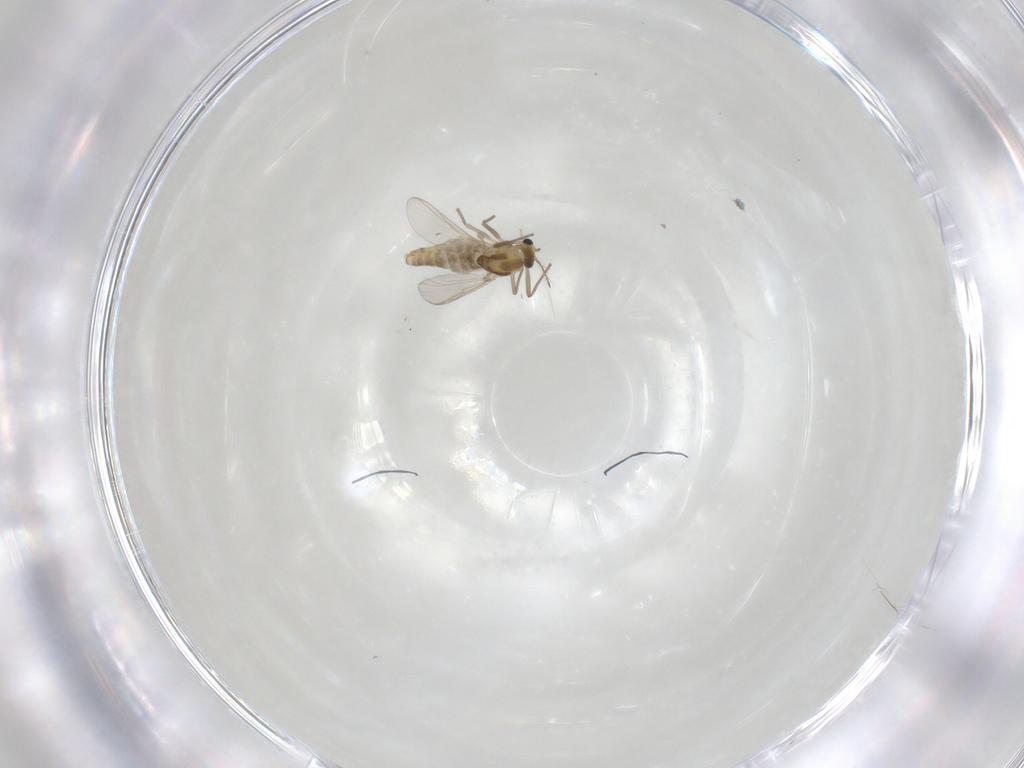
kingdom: Animalia
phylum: Arthropoda
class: Insecta
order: Diptera
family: Chironomidae
